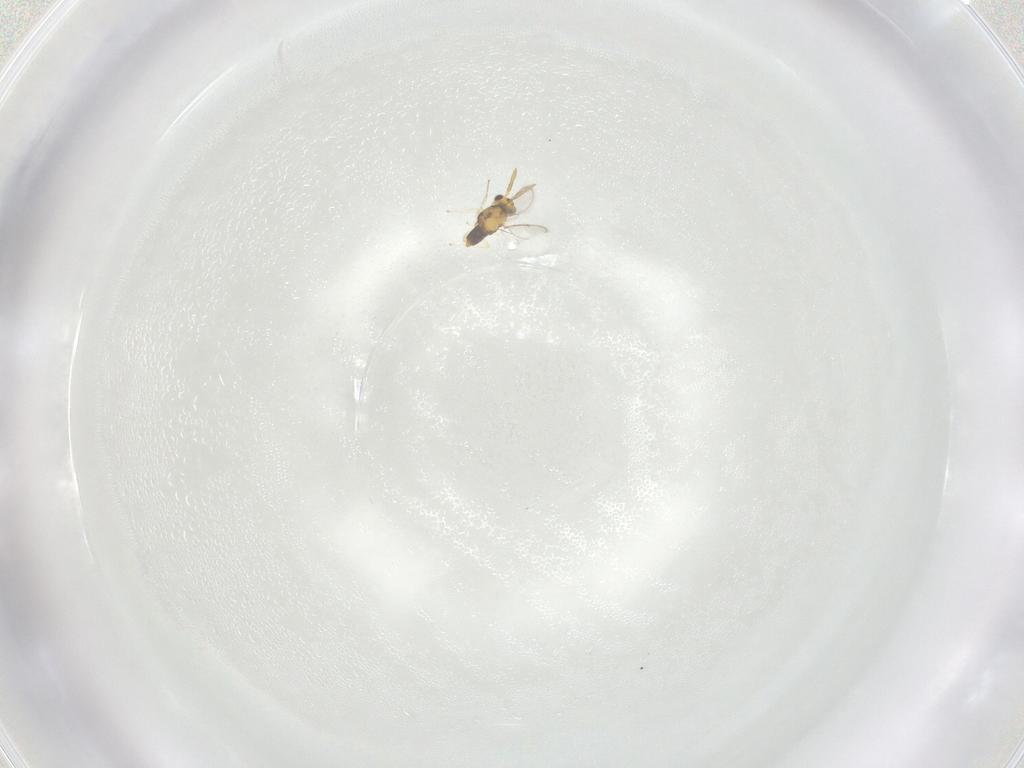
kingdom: Animalia
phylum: Arthropoda
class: Insecta
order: Hymenoptera
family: Aphelinidae
